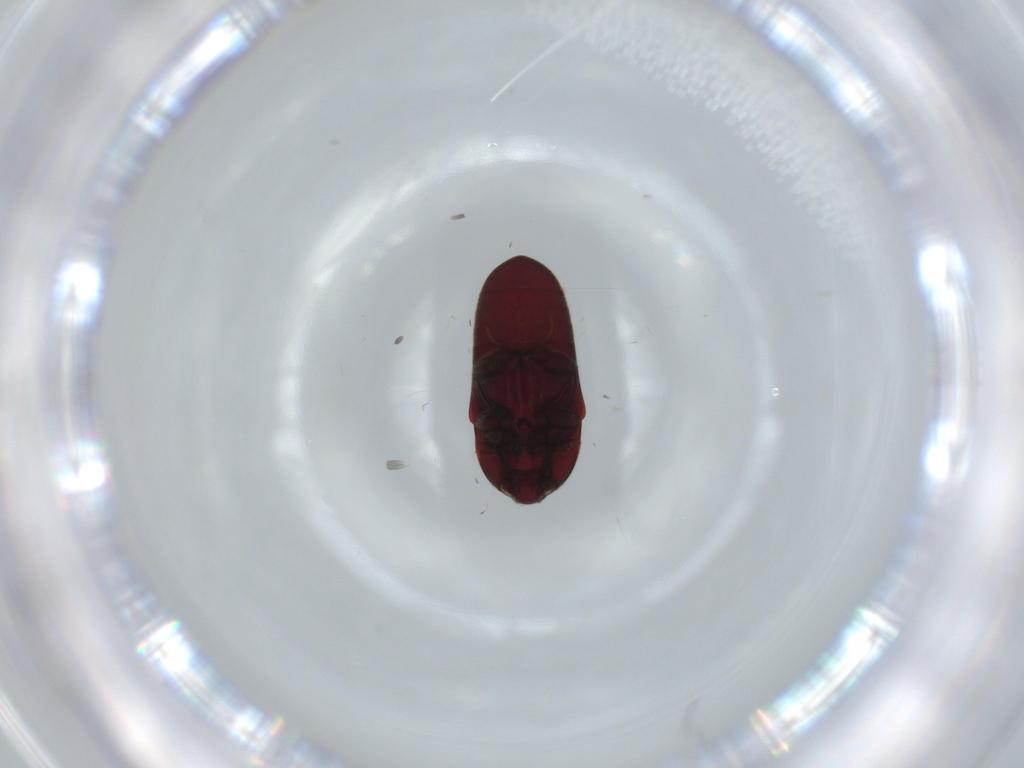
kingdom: Animalia
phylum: Arthropoda
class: Insecta
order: Coleoptera
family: Throscidae
